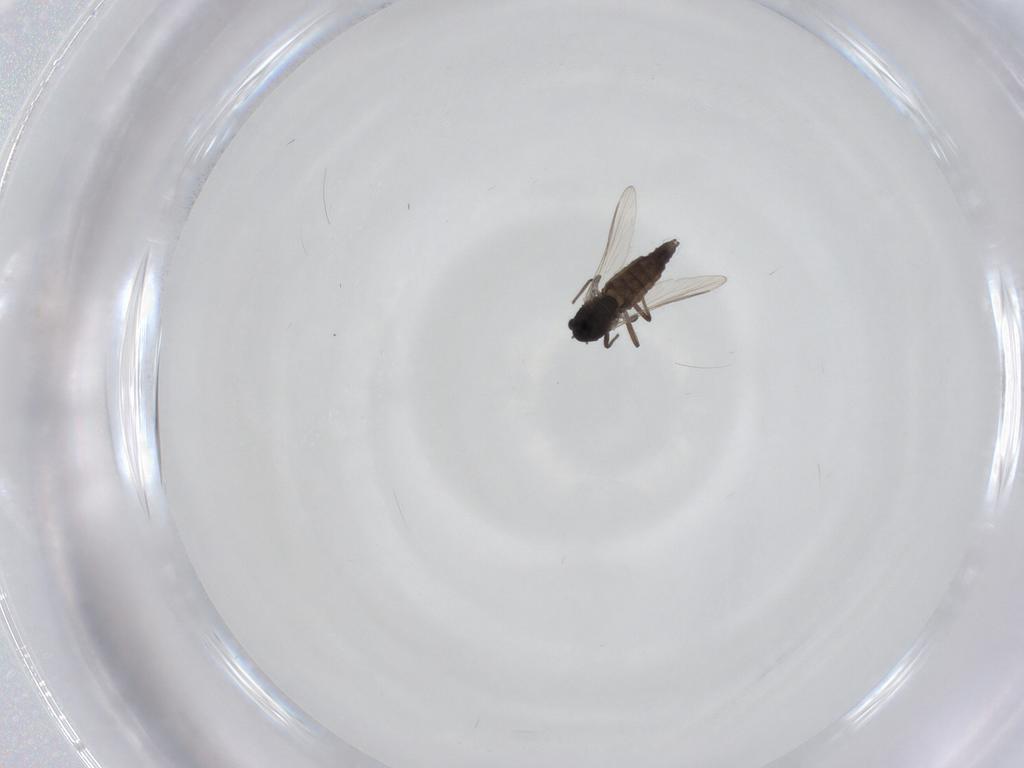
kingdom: Animalia
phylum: Arthropoda
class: Insecta
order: Diptera
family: Chironomidae
